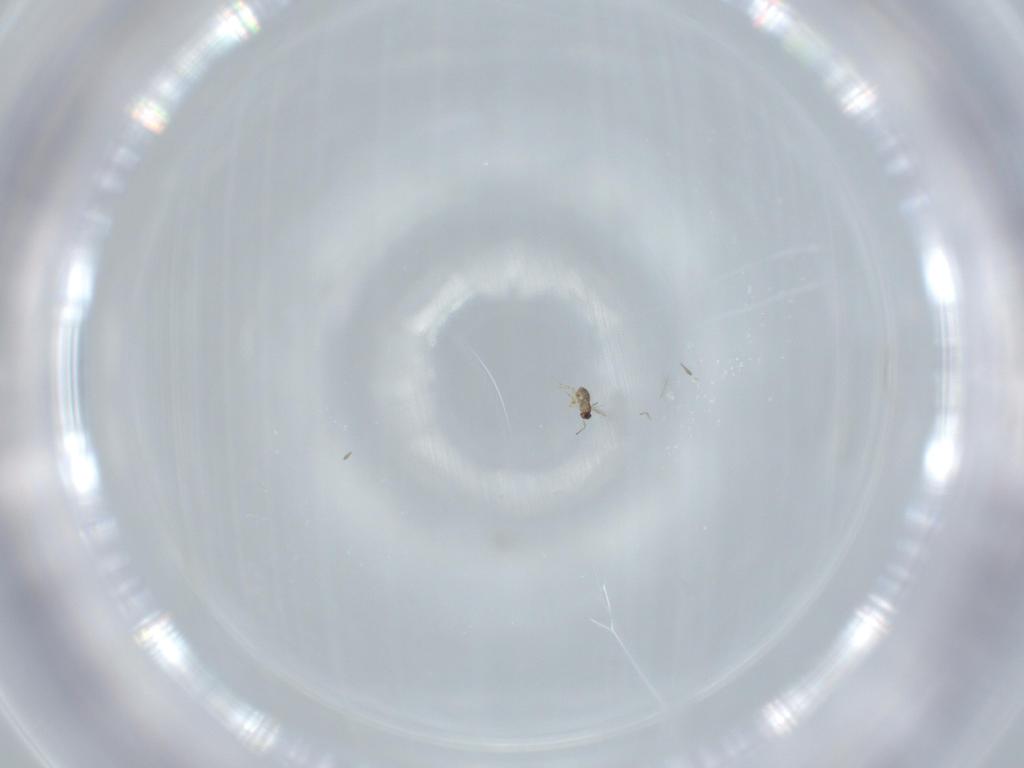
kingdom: Animalia
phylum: Arthropoda
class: Insecta
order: Hymenoptera
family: Mymaridae
